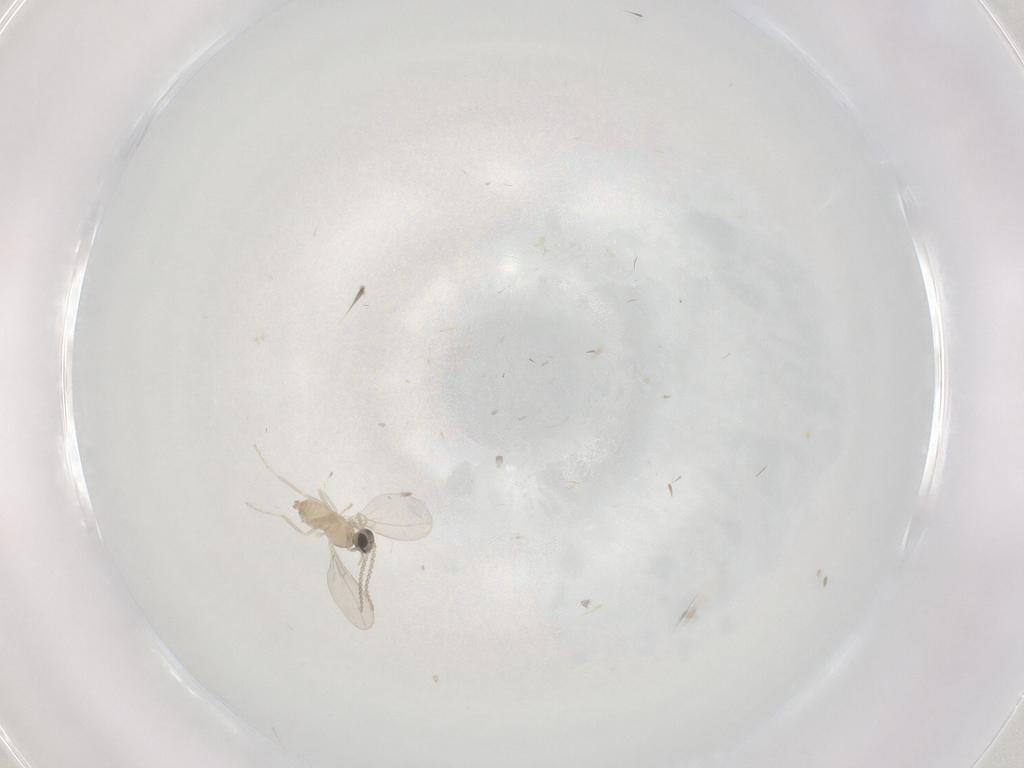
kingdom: Animalia
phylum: Arthropoda
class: Insecta
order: Diptera
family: Cecidomyiidae
